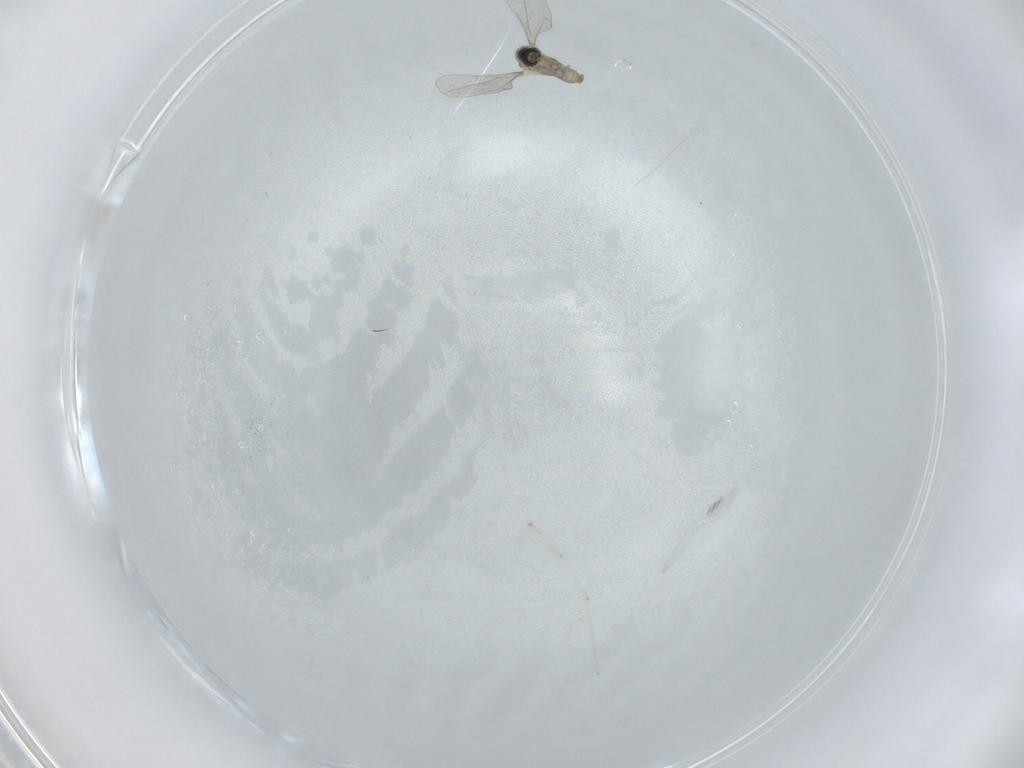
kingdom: Animalia
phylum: Arthropoda
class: Insecta
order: Diptera
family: Cecidomyiidae
